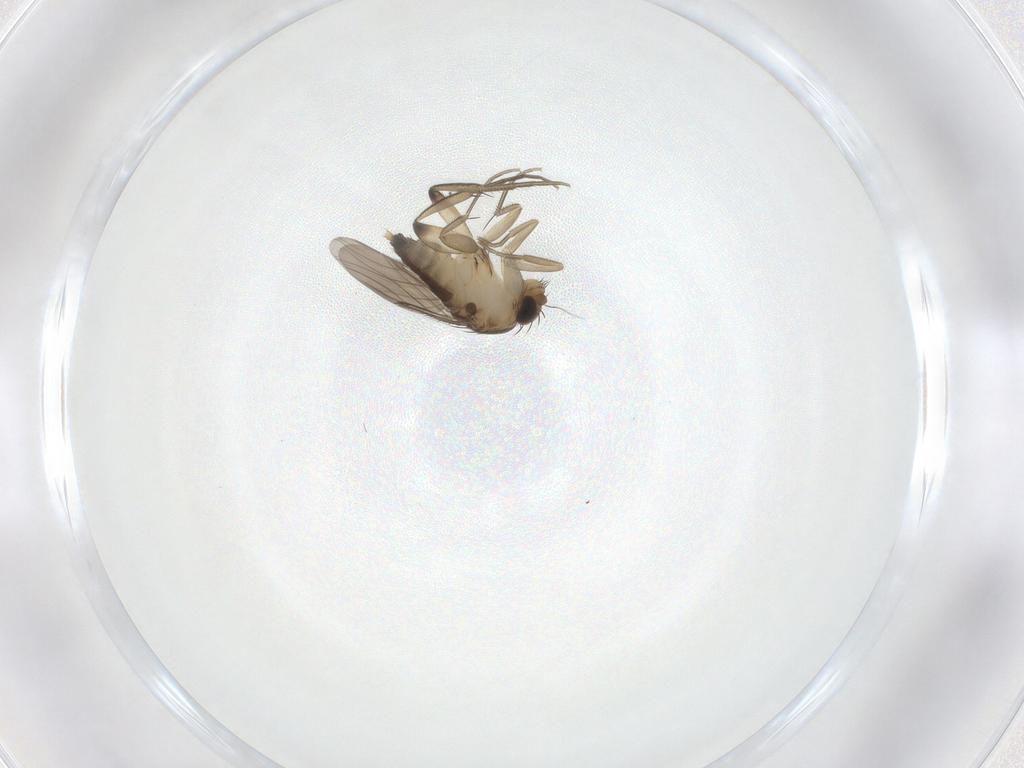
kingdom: Animalia
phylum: Arthropoda
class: Insecta
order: Diptera
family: Phoridae
